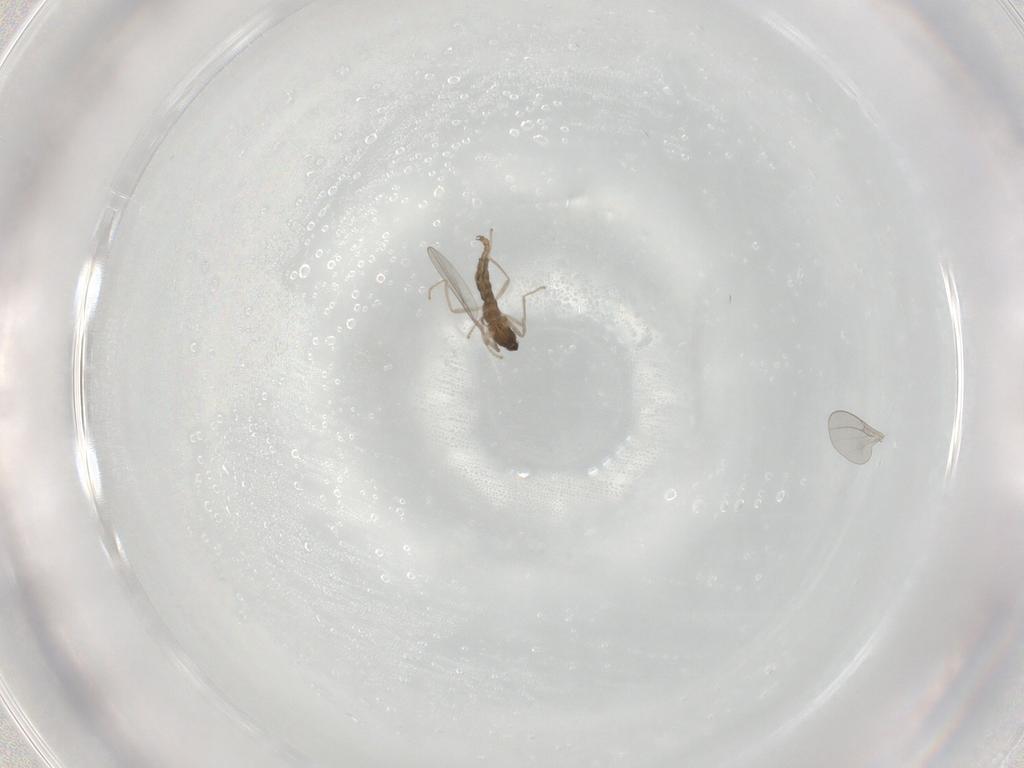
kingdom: Animalia
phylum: Arthropoda
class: Insecta
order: Diptera
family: Cecidomyiidae
